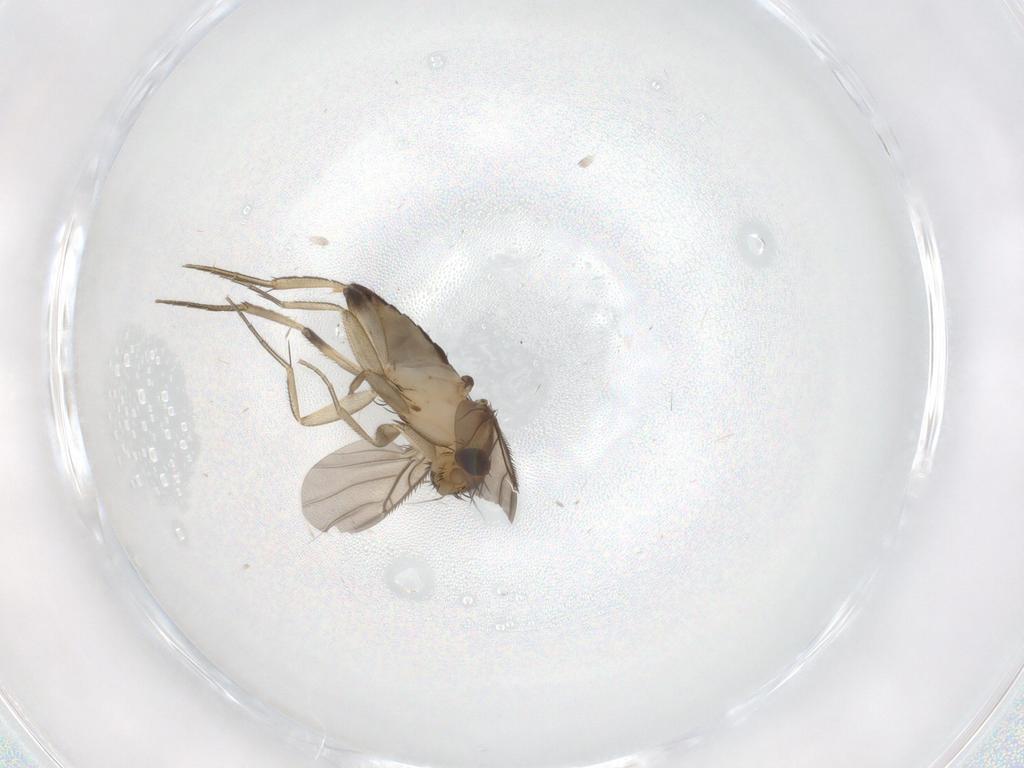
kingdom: Animalia
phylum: Arthropoda
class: Insecta
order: Diptera
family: Phoridae
